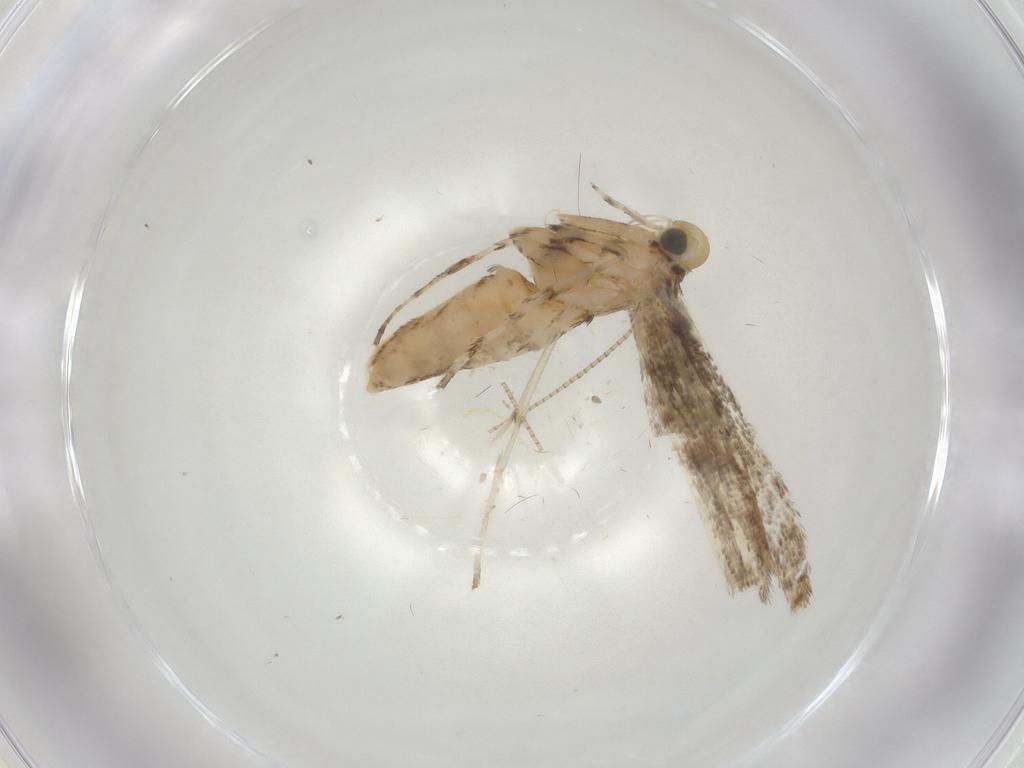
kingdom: Animalia
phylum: Arthropoda
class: Insecta
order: Lepidoptera
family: Gracillariidae
